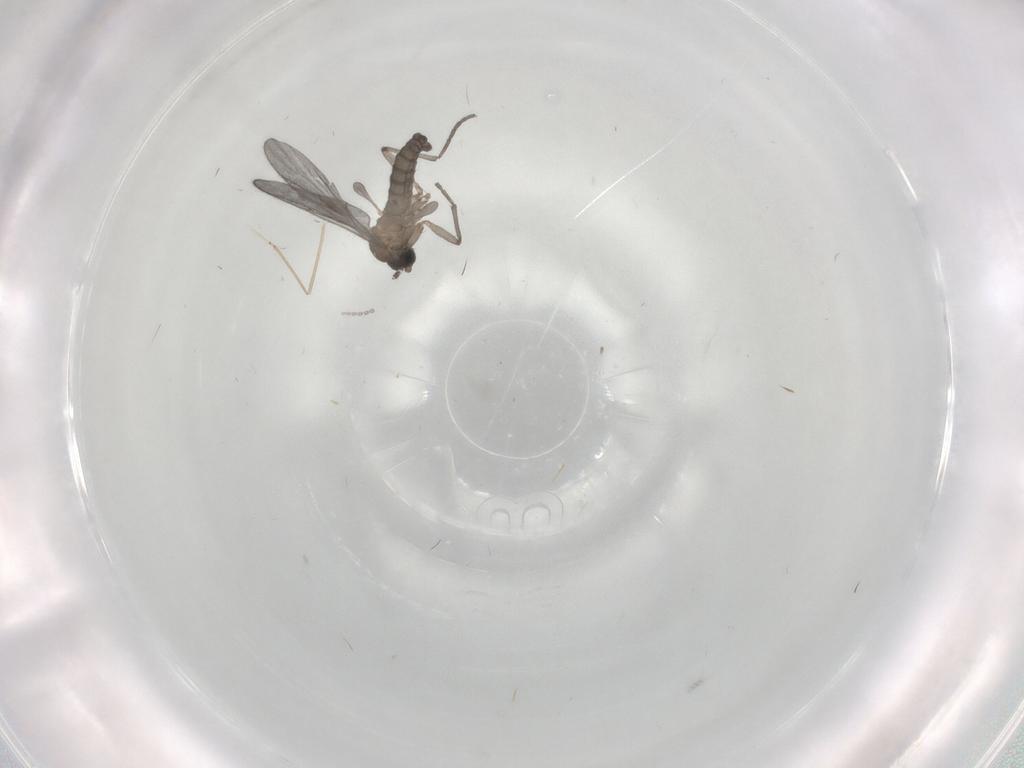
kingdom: Animalia
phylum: Arthropoda
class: Insecta
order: Diptera
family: Sciaridae
